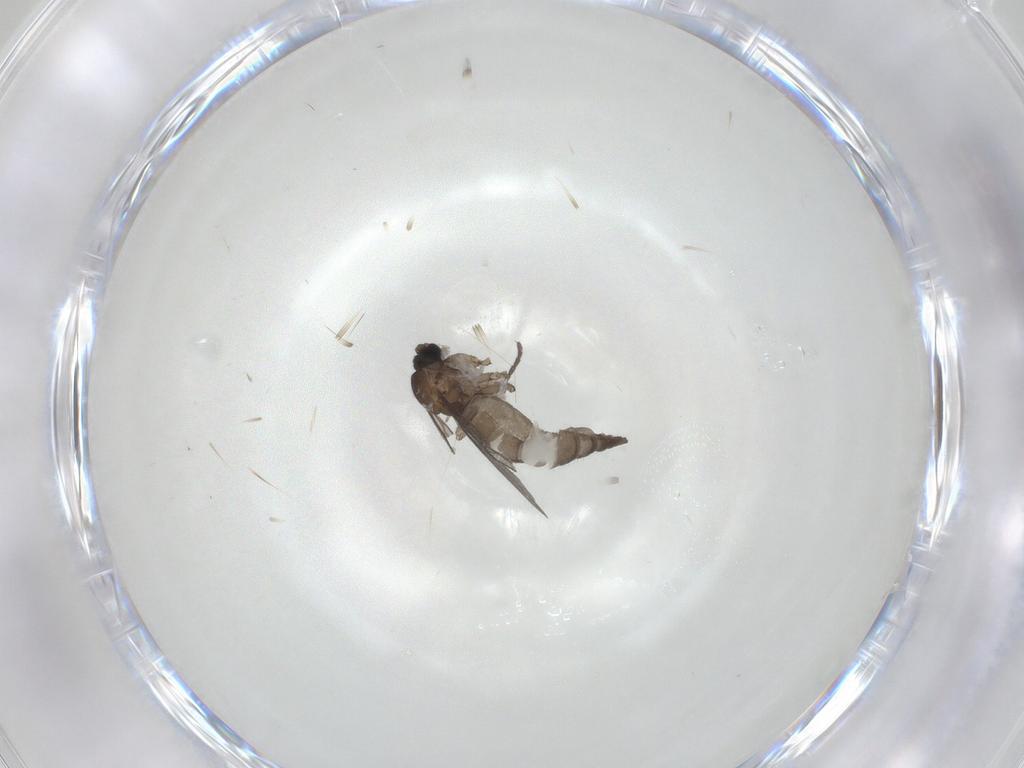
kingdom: Animalia
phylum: Arthropoda
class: Insecta
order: Diptera
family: Sciaridae
